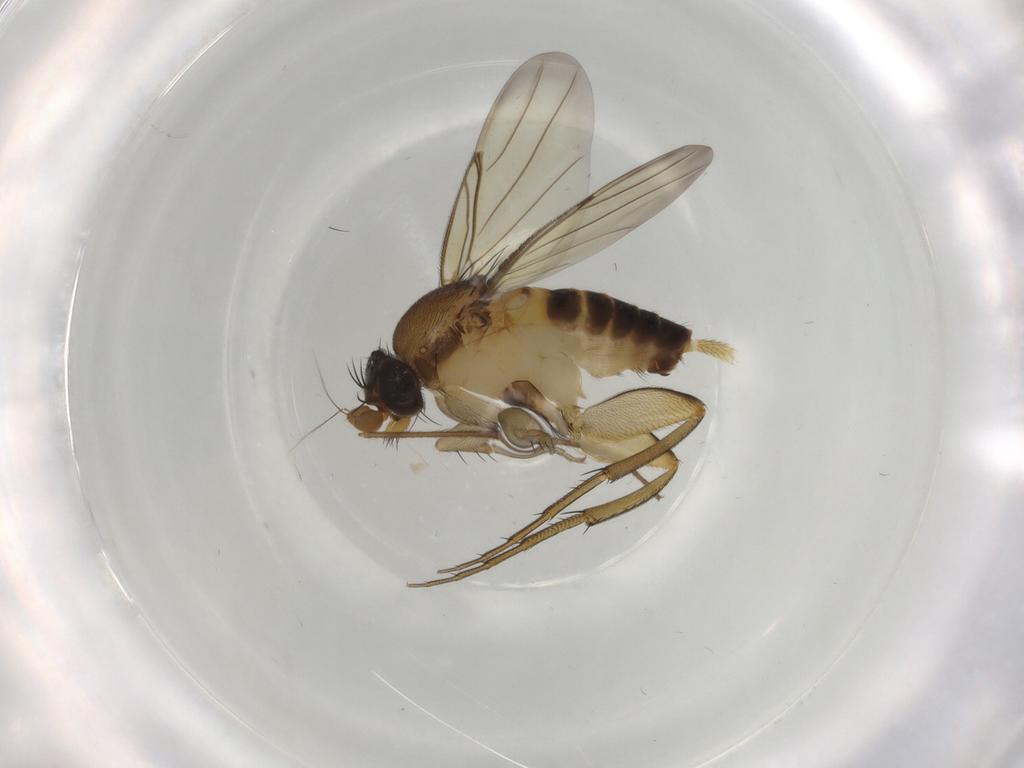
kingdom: Animalia
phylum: Arthropoda
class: Insecta
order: Diptera
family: Phoridae
